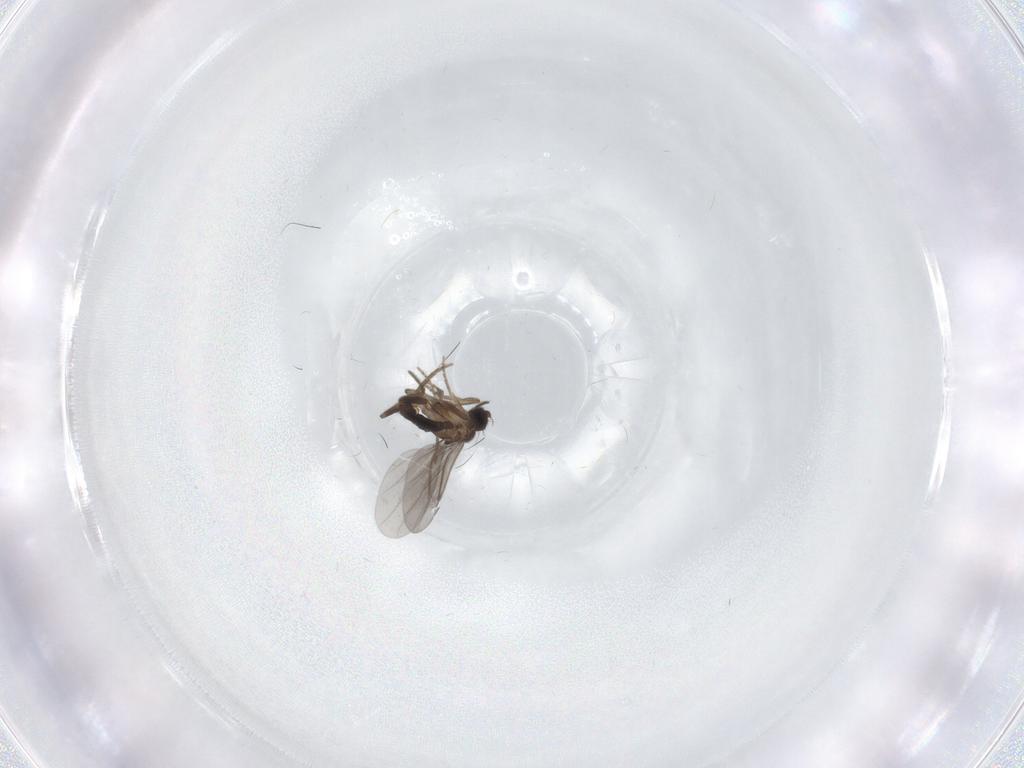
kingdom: Animalia
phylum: Arthropoda
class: Insecta
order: Diptera
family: Sciaridae
